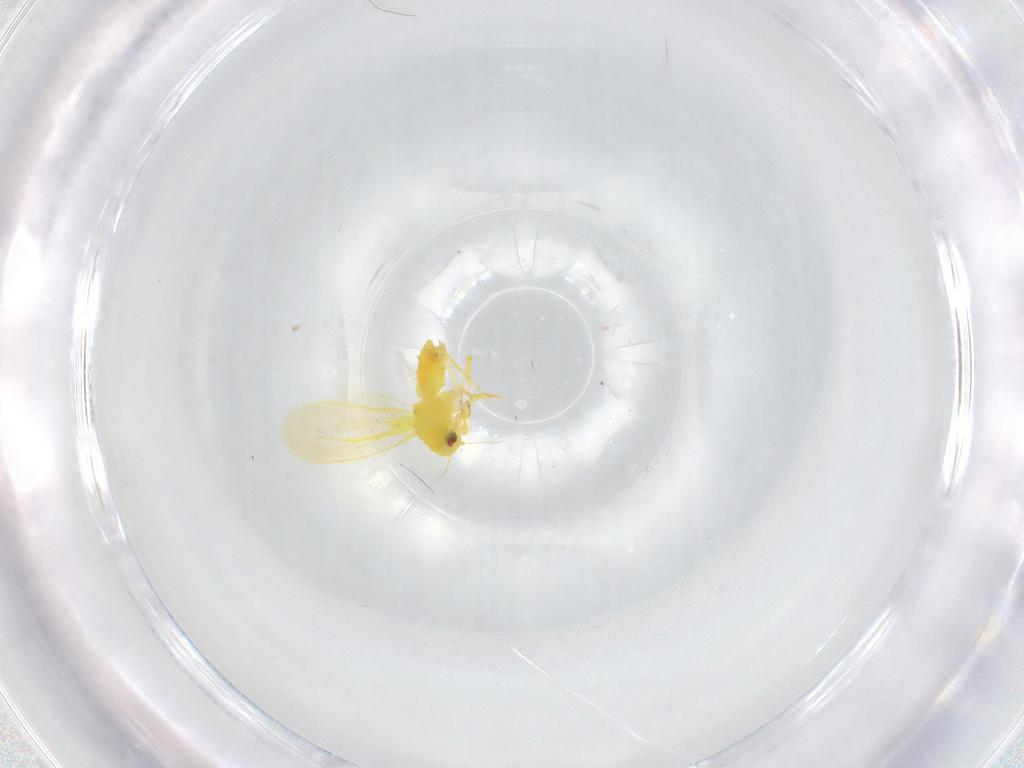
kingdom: Animalia
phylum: Arthropoda
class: Insecta
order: Hemiptera
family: Aleyrodidae
